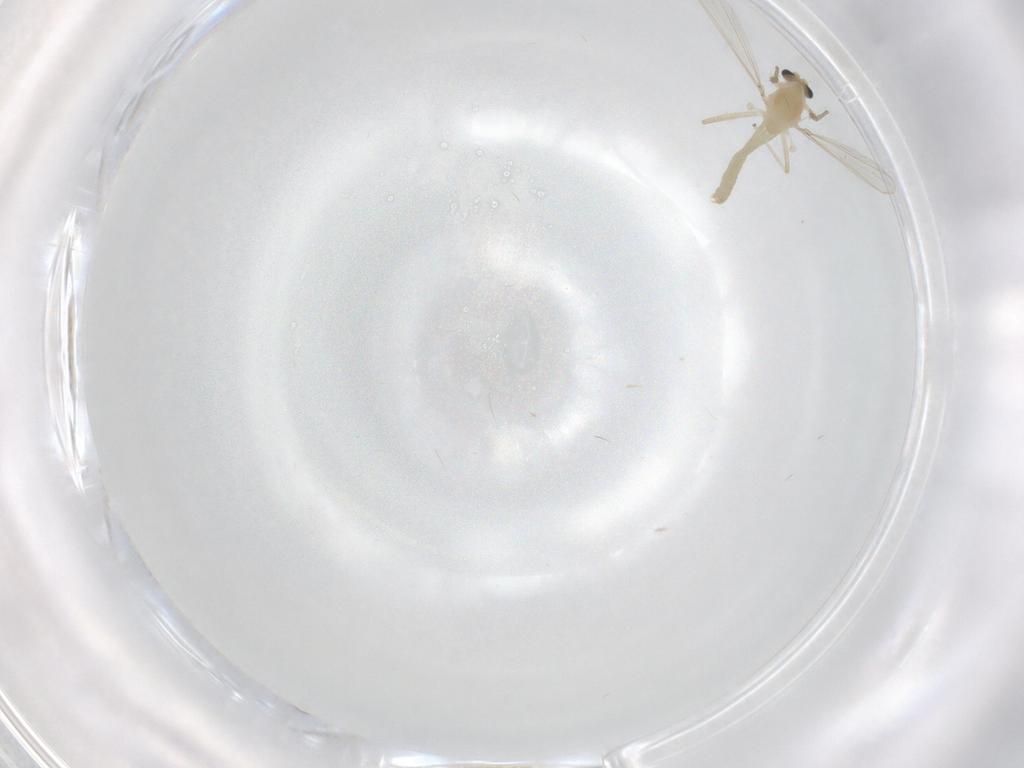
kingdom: Animalia
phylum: Arthropoda
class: Insecta
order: Diptera
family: Chironomidae
